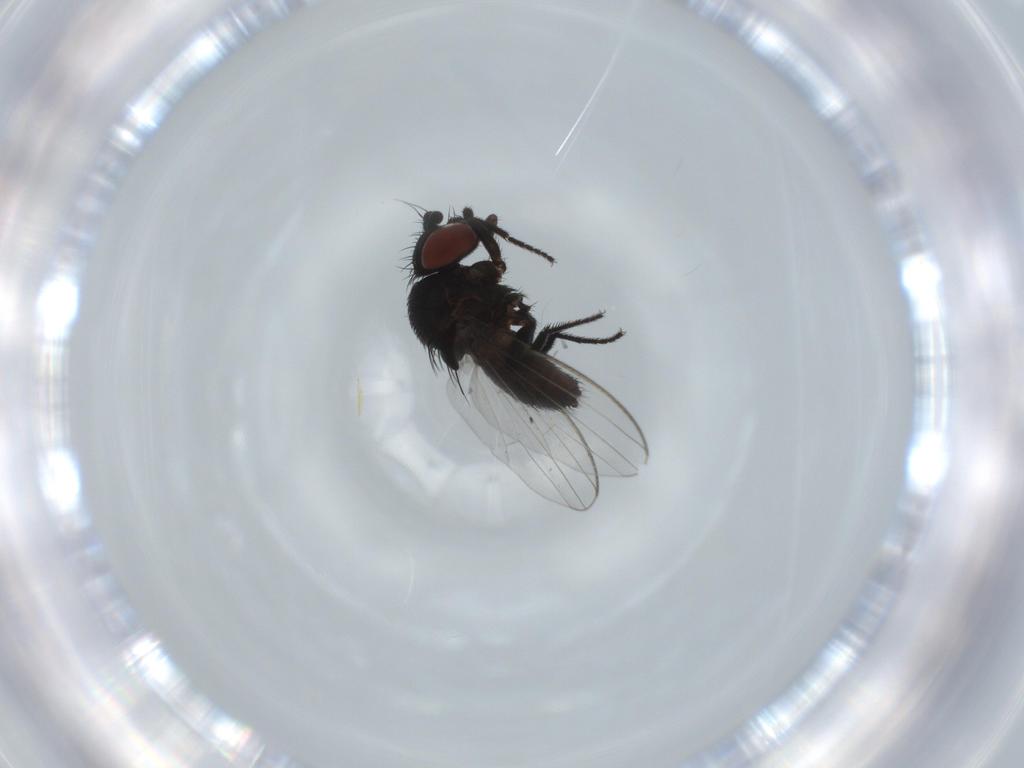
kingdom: Animalia
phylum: Arthropoda
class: Insecta
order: Diptera
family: Milichiidae
